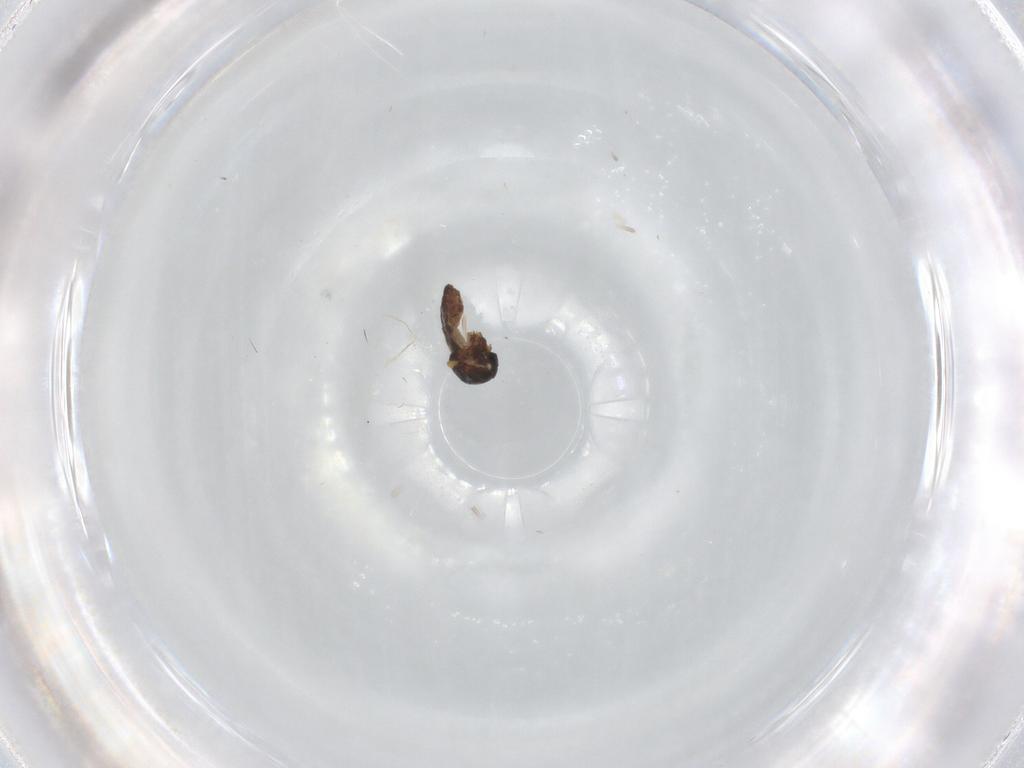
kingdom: Animalia
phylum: Arthropoda
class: Insecta
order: Diptera
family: Ceratopogonidae
